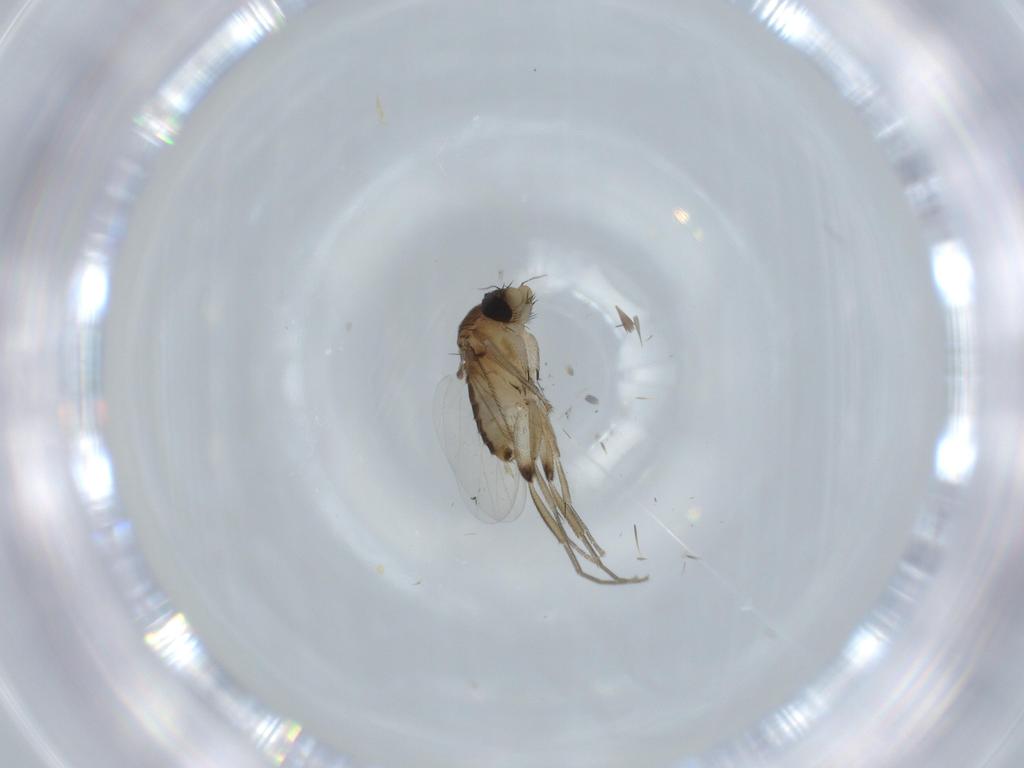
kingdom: Animalia
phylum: Arthropoda
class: Insecta
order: Diptera
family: Phoridae
